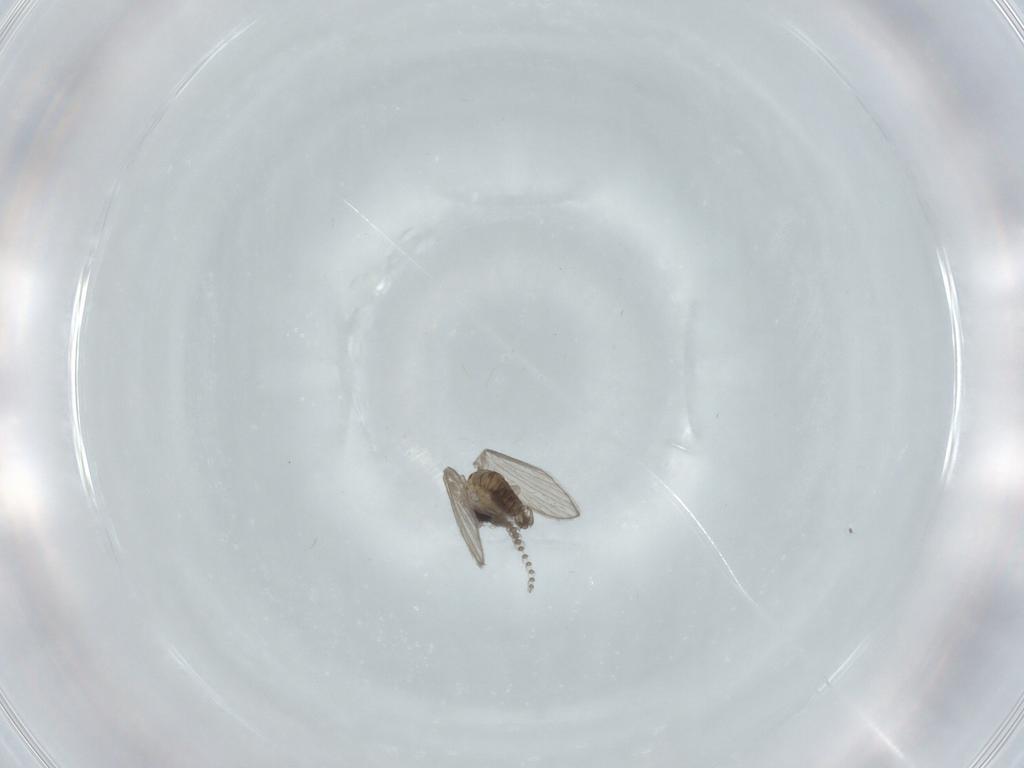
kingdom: Animalia
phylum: Arthropoda
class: Insecta
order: Diptera
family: Psychodidae
